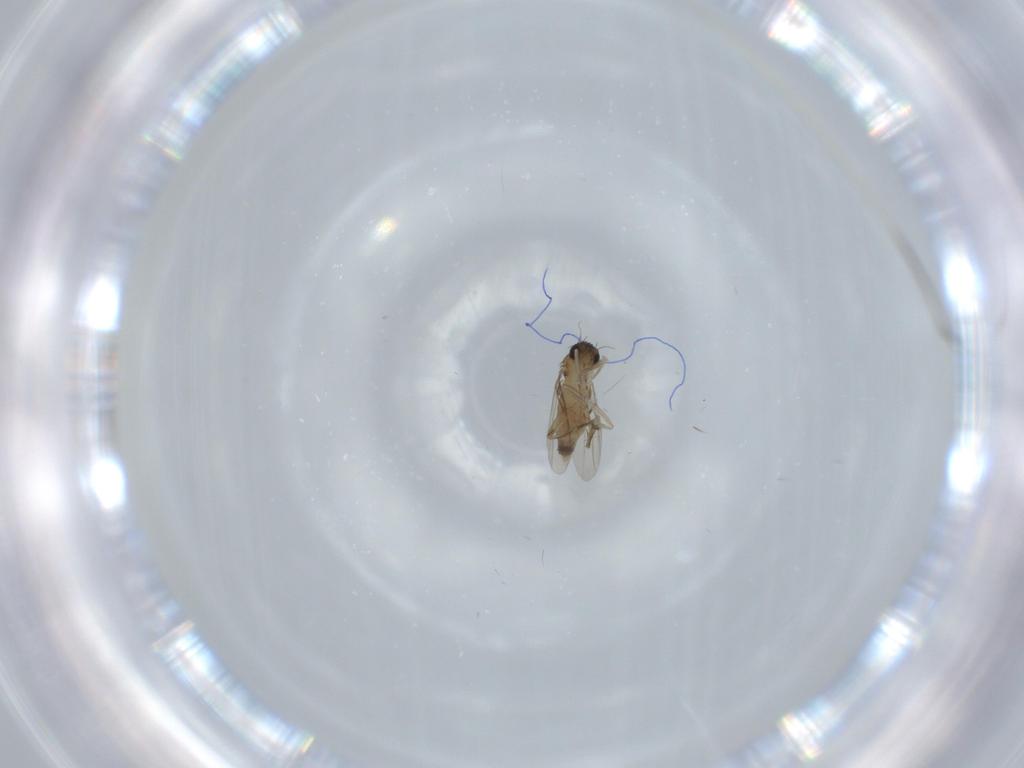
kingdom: Animalia
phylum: Arthropoda
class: Insecta
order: Diptera
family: Phoridae
